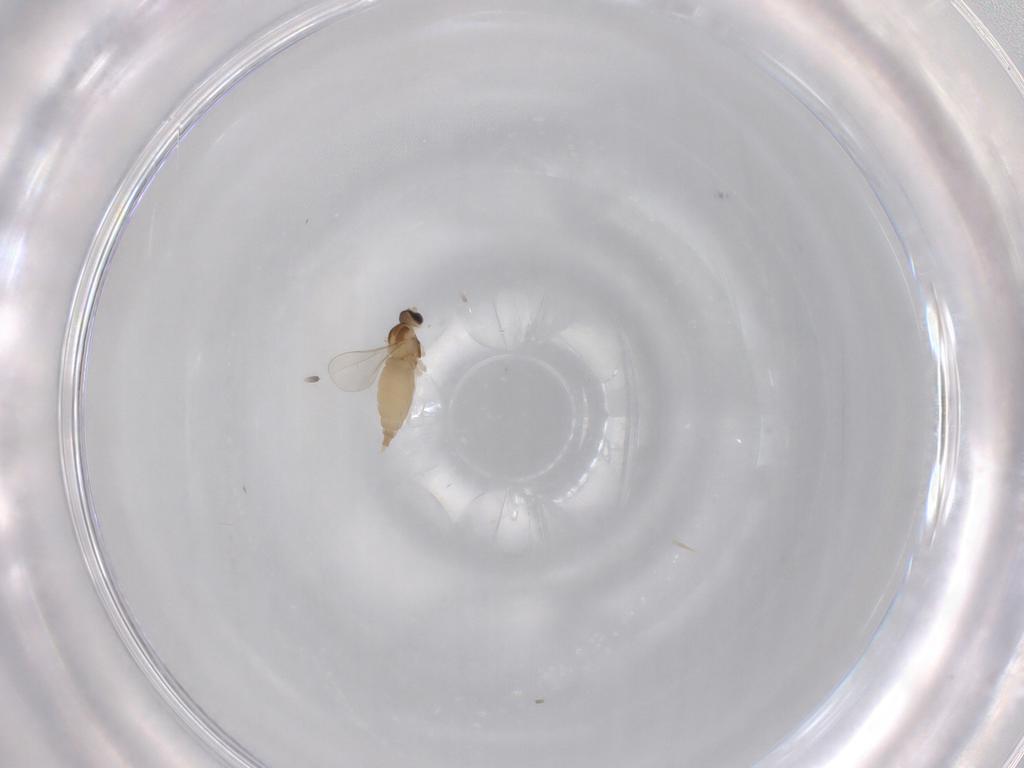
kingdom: Animalia
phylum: Arthropoda
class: Insecta
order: Diptera
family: Cecidomyiidae
